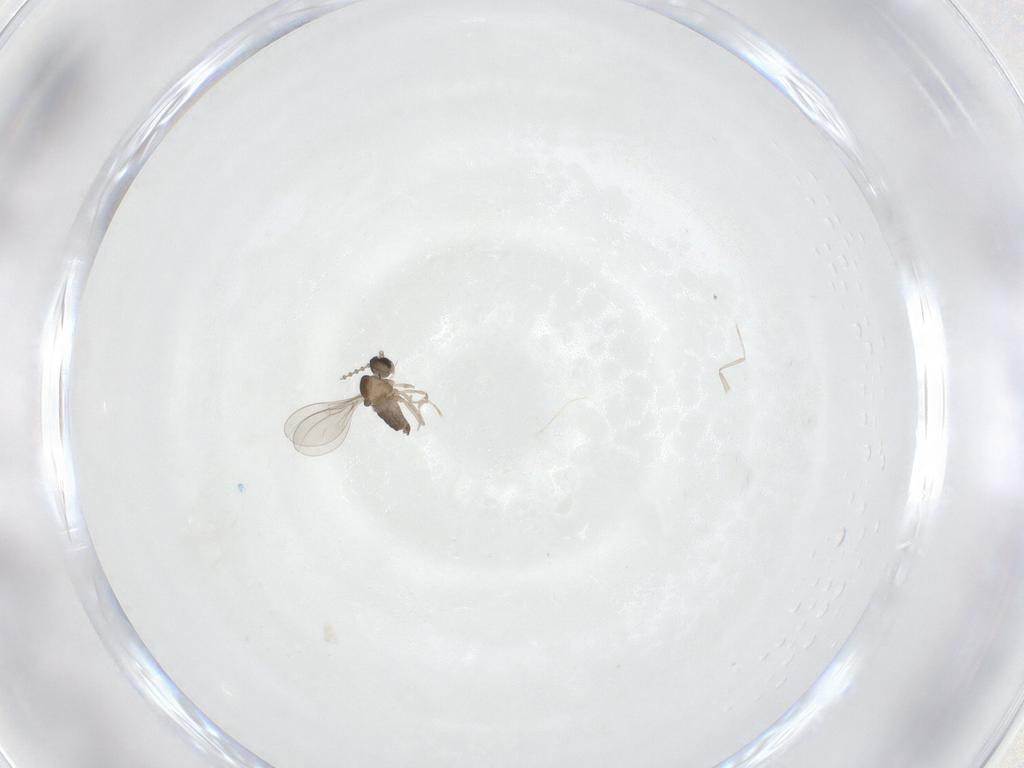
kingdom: Animalia
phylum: Arthropoda
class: Insecta
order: Diptera
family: Cecidomyiidae
